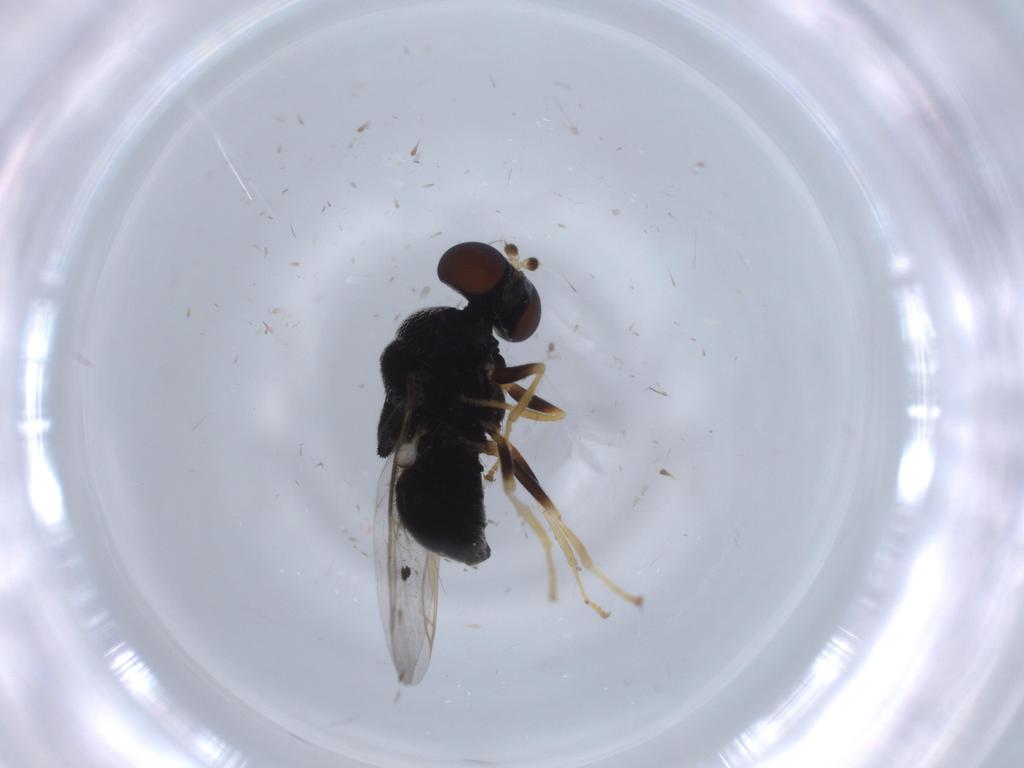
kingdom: Animalia
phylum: Arthropoda
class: Insecta
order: Diptera
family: Stratiomyidae
